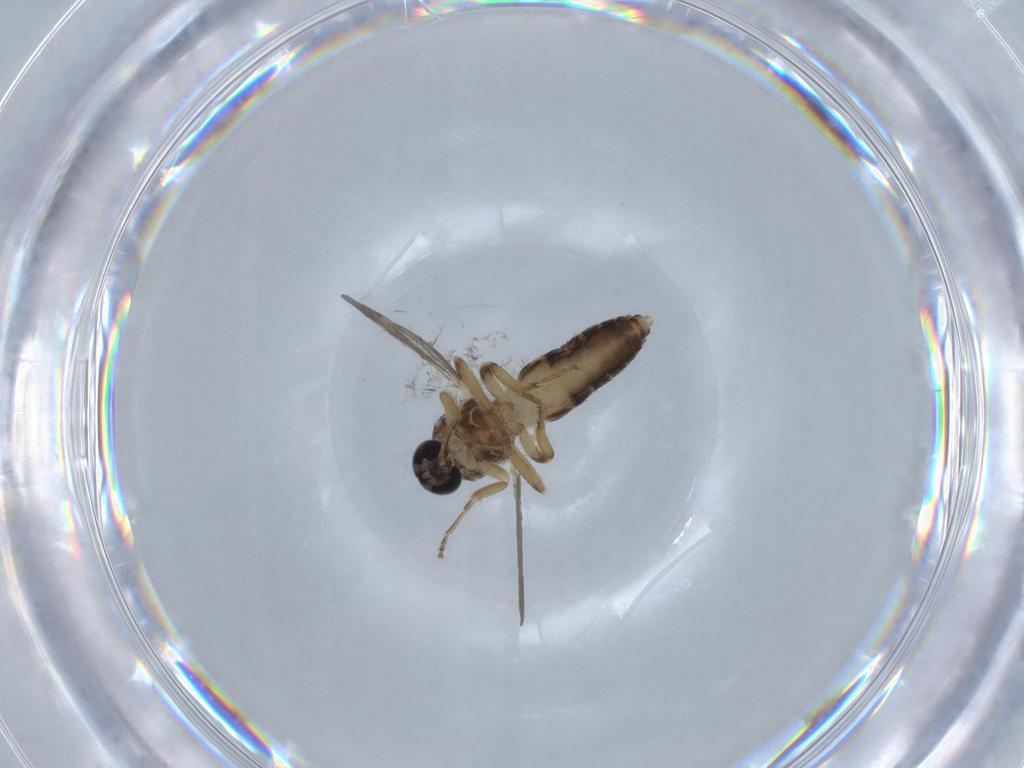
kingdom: Animalia
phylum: Arthropoda
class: Insecta
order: Diptera
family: Ceratopogonidae
